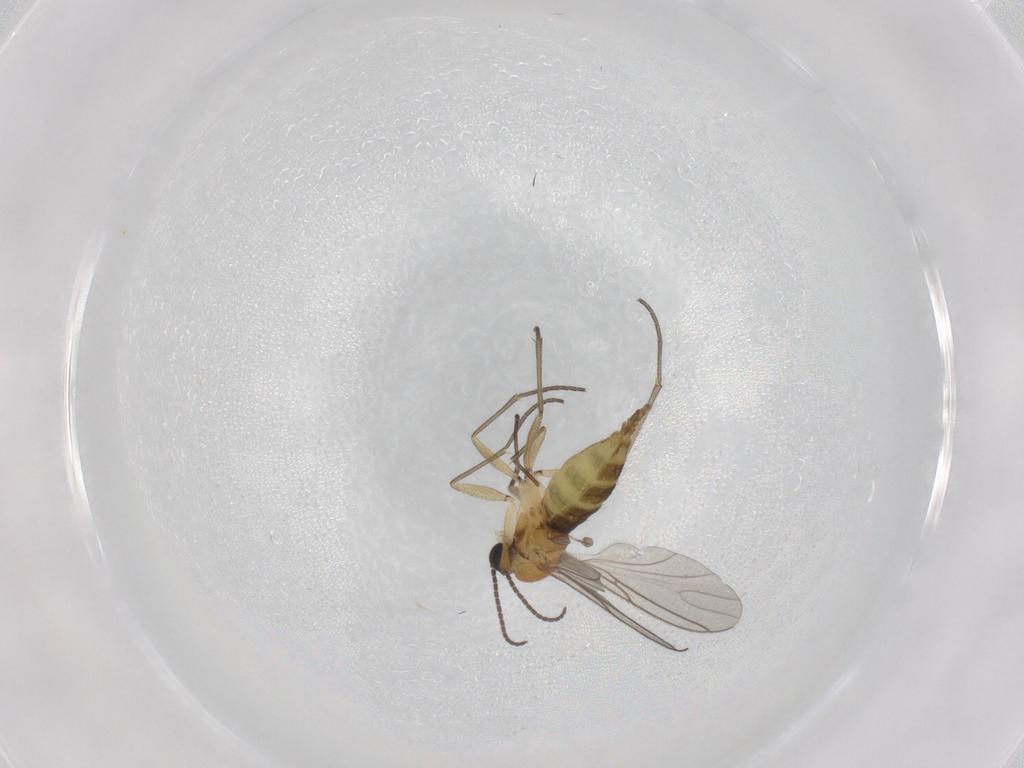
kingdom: Animalia
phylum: Arthropoda
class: Insecta
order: Diptera
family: Sciaridae
